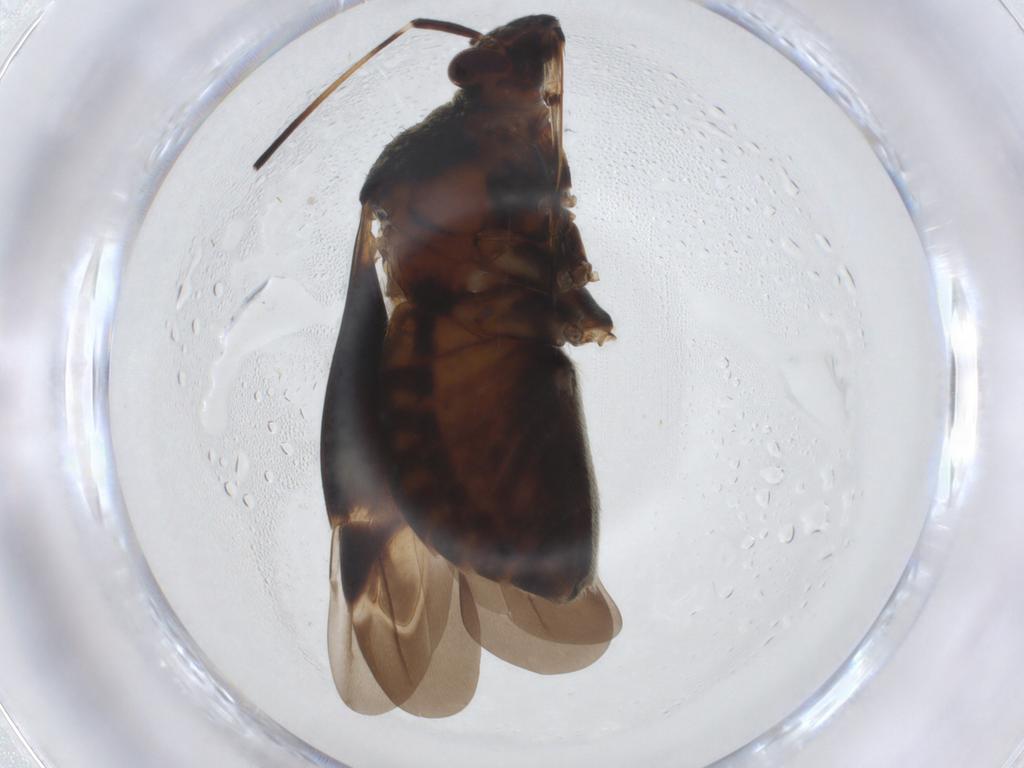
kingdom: Animalia
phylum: Arthropoda
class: Insecta
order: Hemiptera
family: Miridae
